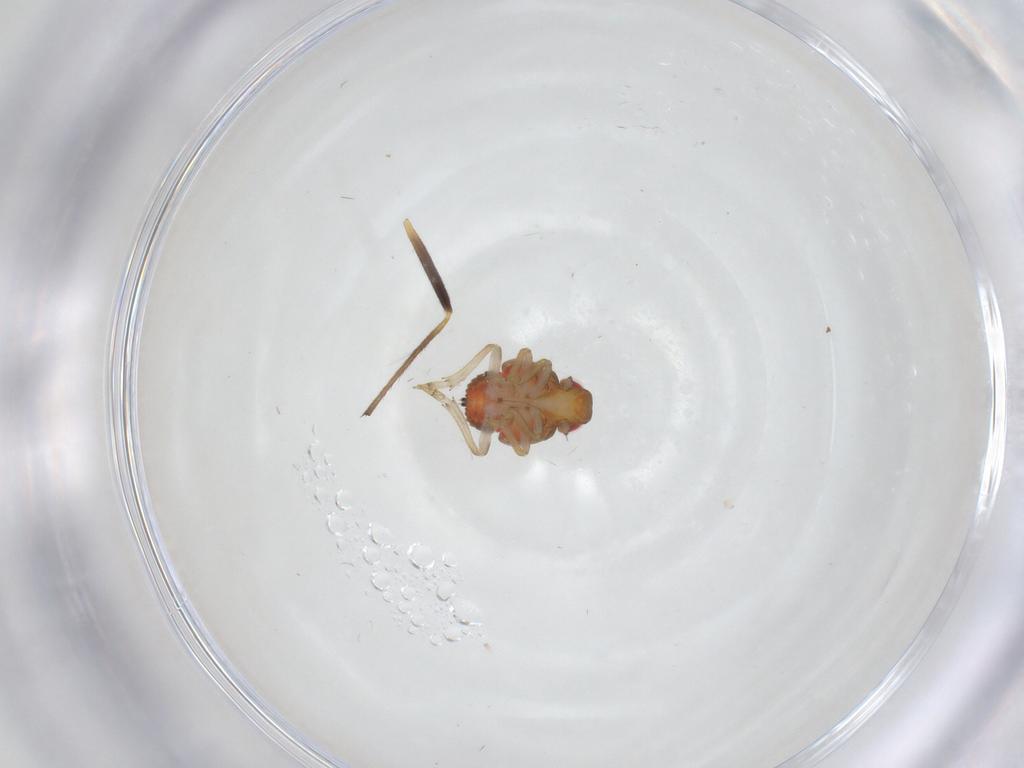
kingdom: Animalia
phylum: Arthropoda
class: Insecta
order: Hemiptera
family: Issidae
